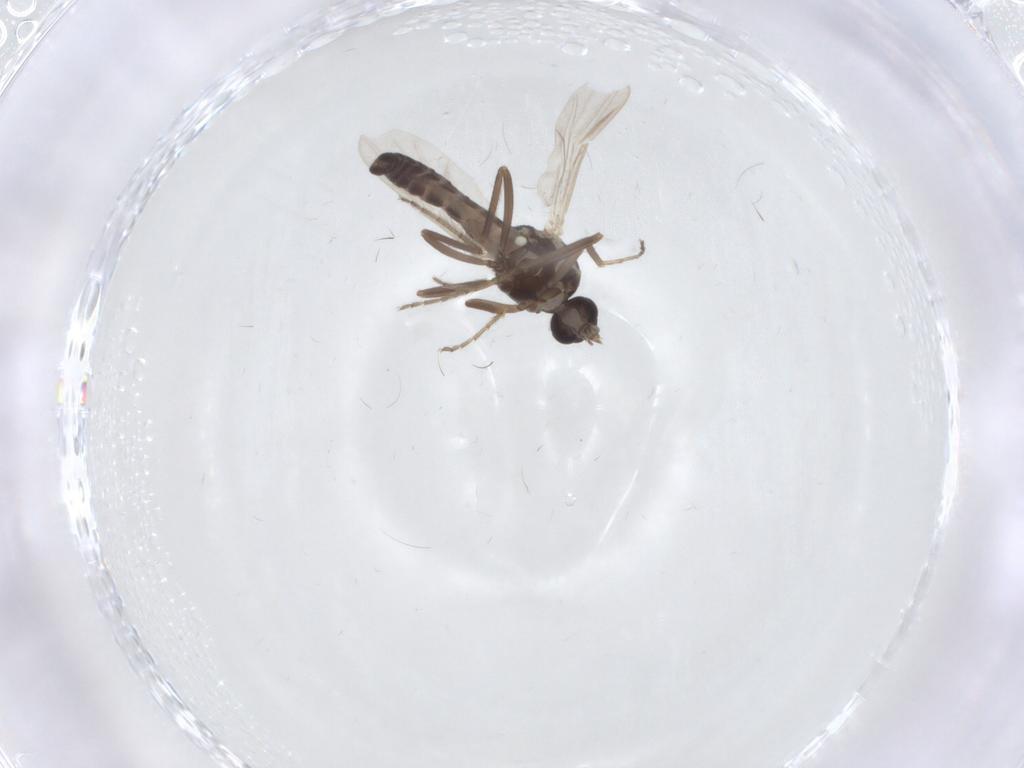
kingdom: Animalia
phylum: Arthropoda
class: Insecta
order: Diptera
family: Ceratopogonidae
